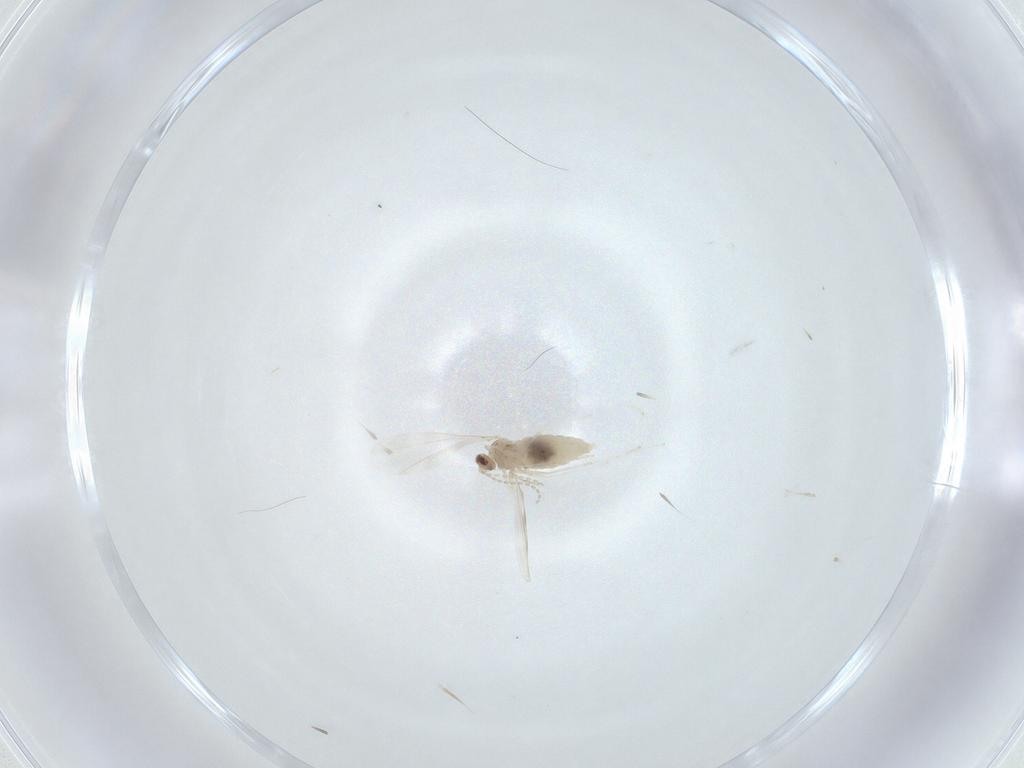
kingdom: Animalia
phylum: Arthropoda
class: Insecta
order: Diptera
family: Cecidomyiidae
